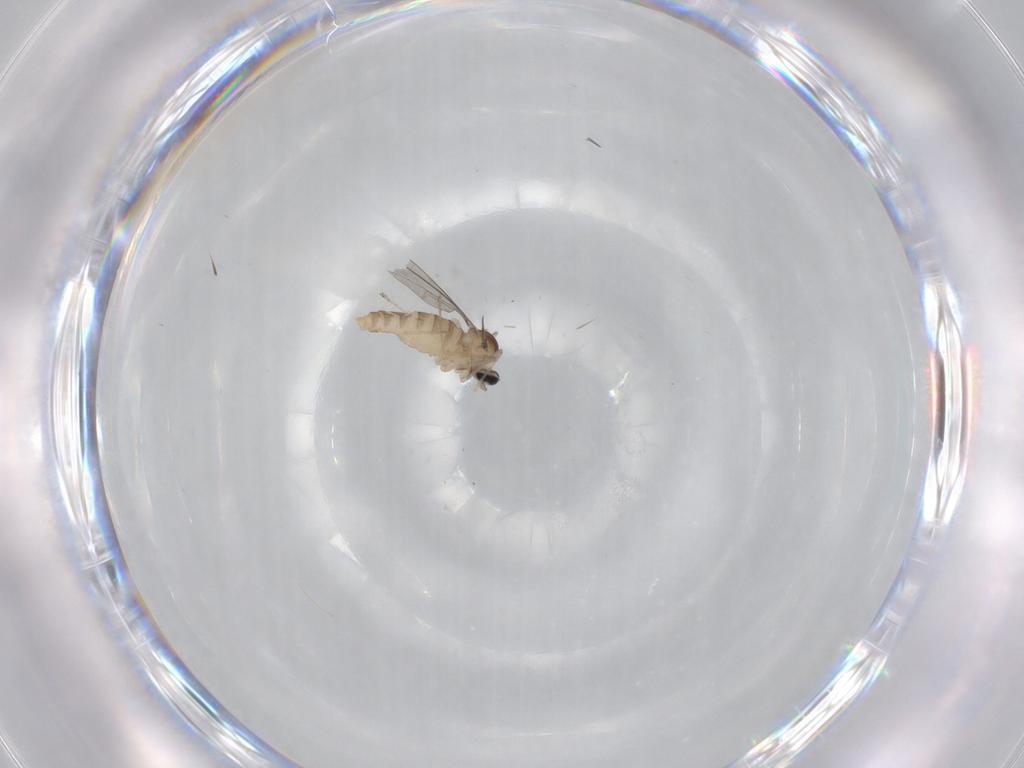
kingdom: Animalia
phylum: Arthropoda
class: Insecta
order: Diptera
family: Cecidomyiidae
